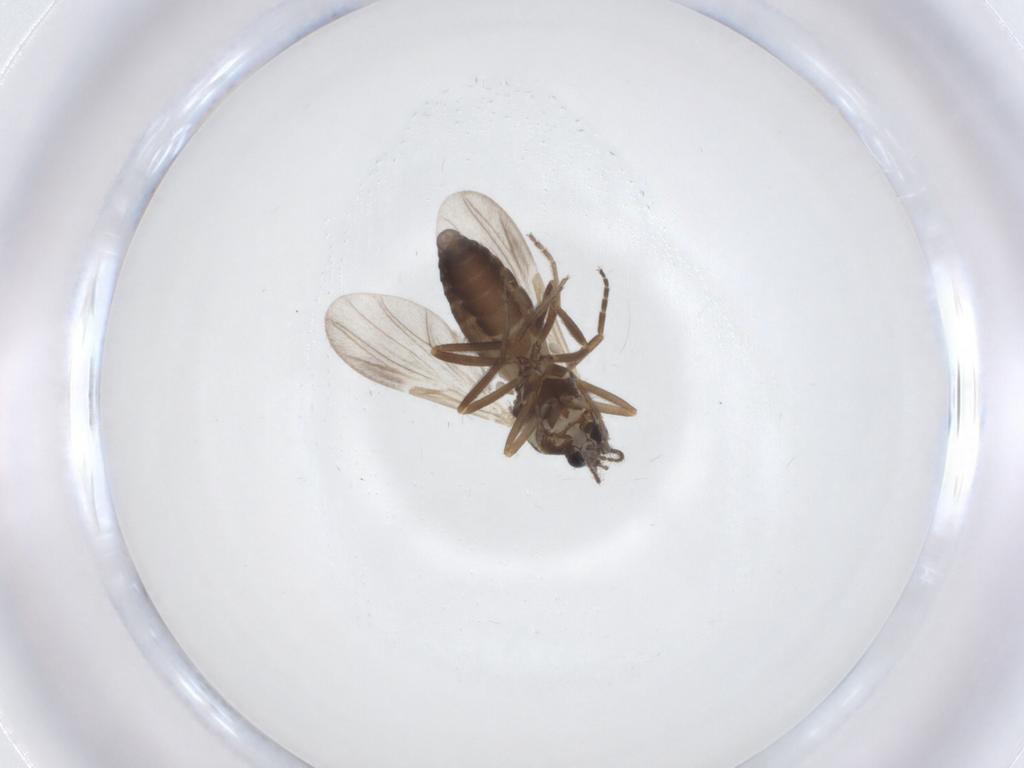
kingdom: Animalia
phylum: Arthropoda
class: Insecta
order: Diptera
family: Ceratopogonidae
